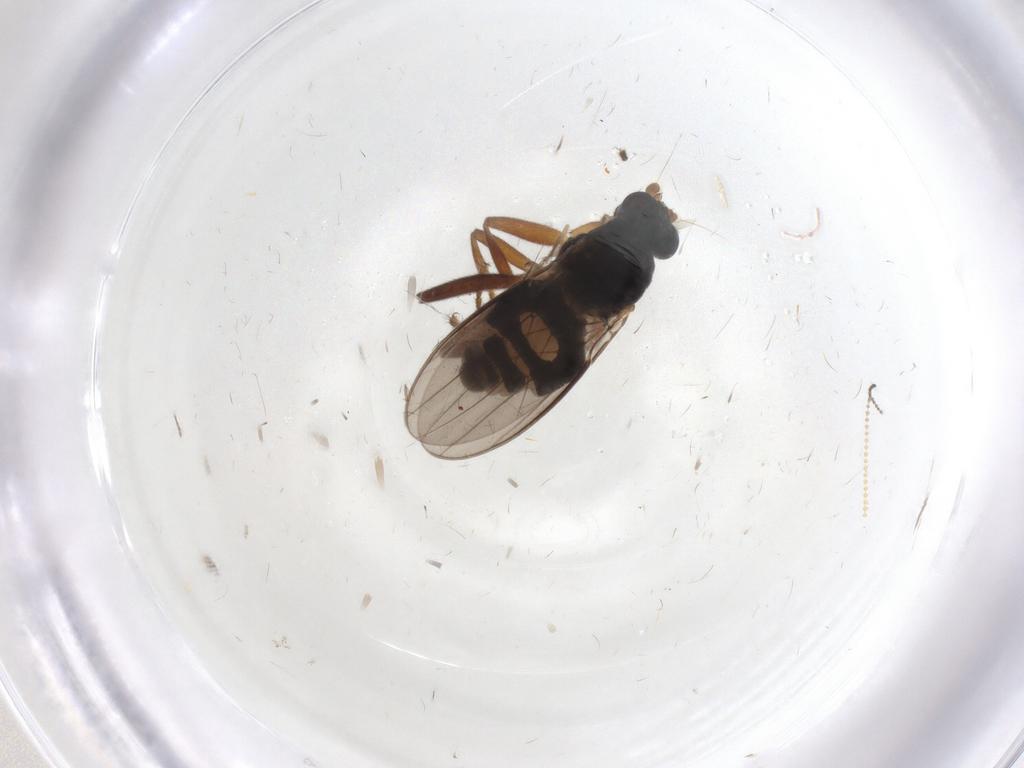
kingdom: Animalia
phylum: Arthropoda
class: Insecta
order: Diptera
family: Sphaeroceridae
